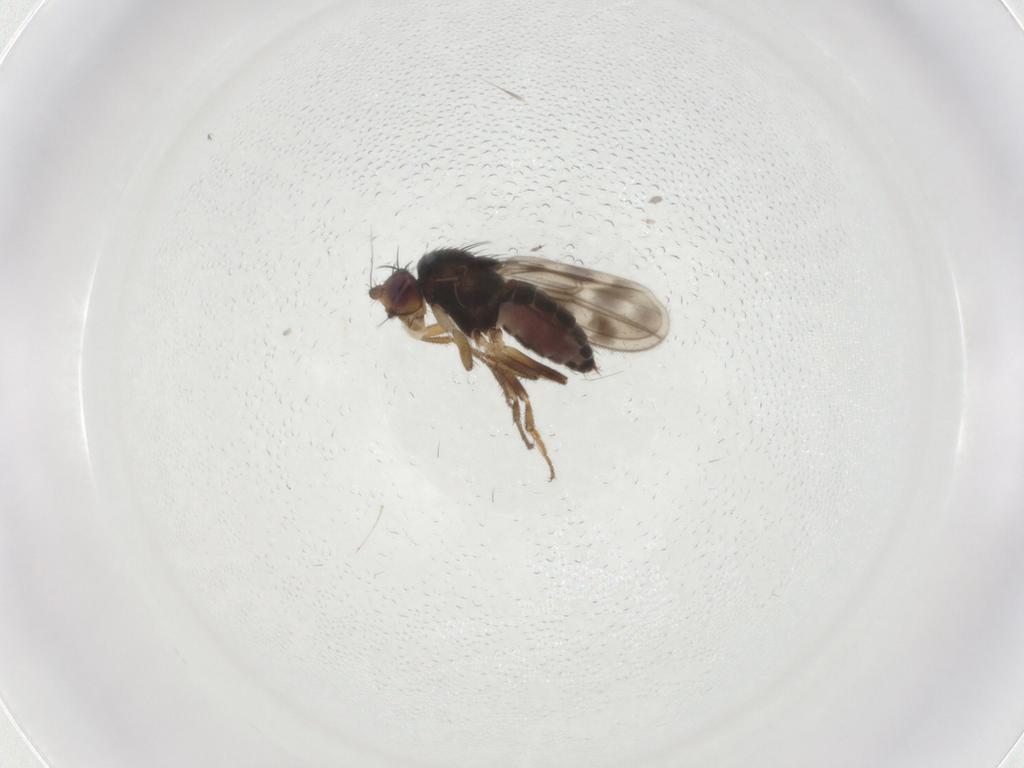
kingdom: Animalia
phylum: Arthropoda
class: Insecta
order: Diptera
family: Sphaeroceridae
